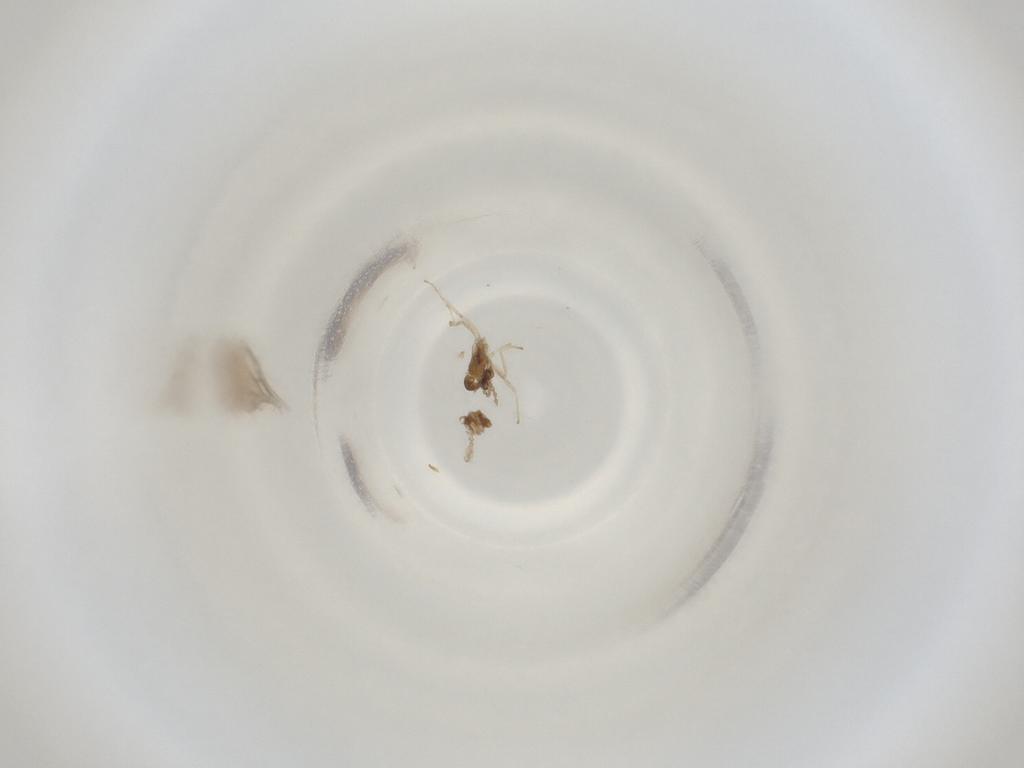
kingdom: Animalia
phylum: Arthropoda
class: Insecta
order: Diptera
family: Cecidomyiidae
